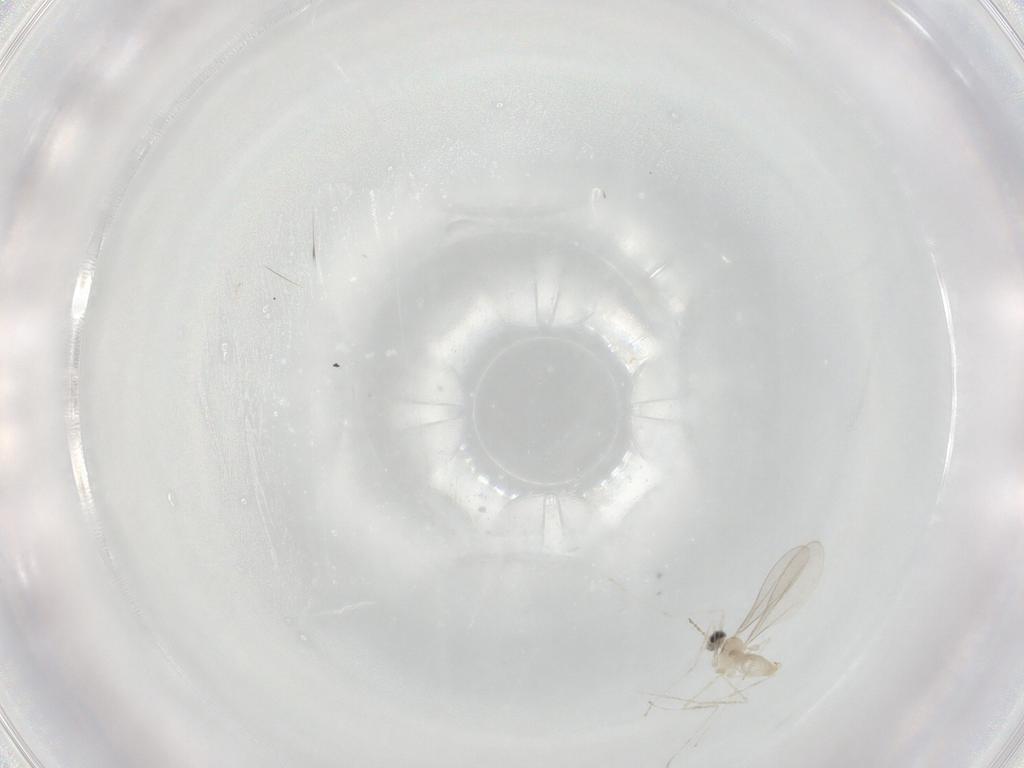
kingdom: Animalia
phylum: Arthropoda
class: Insecta
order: Diptera
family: Cecidomyiidae
